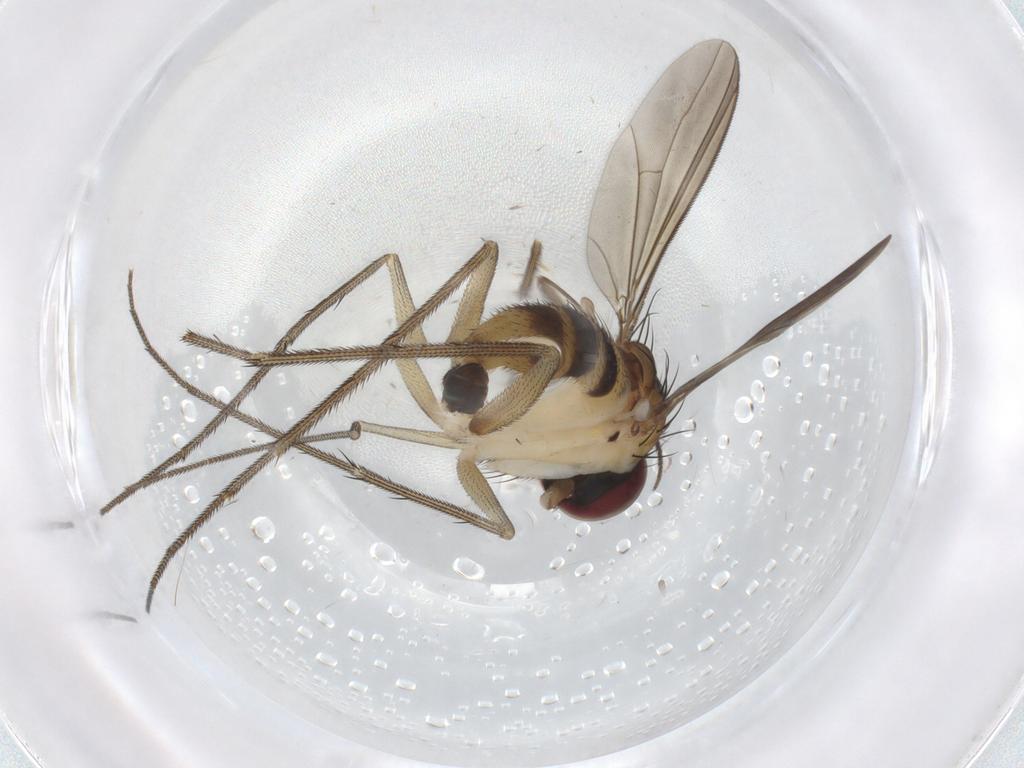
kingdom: Animalia
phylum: Arthropoda
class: Insecta
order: Diptera
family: Dolichopodidae
